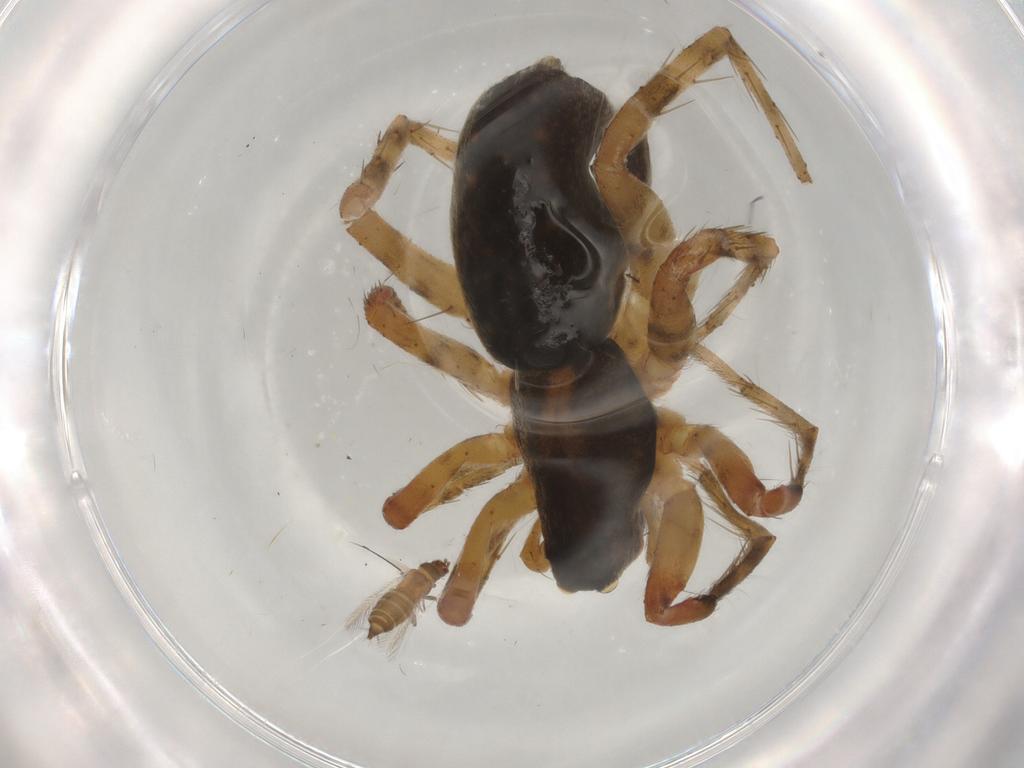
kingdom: Animalia
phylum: Arthropoda
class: Arachnida
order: Araneae
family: Lycosidae
